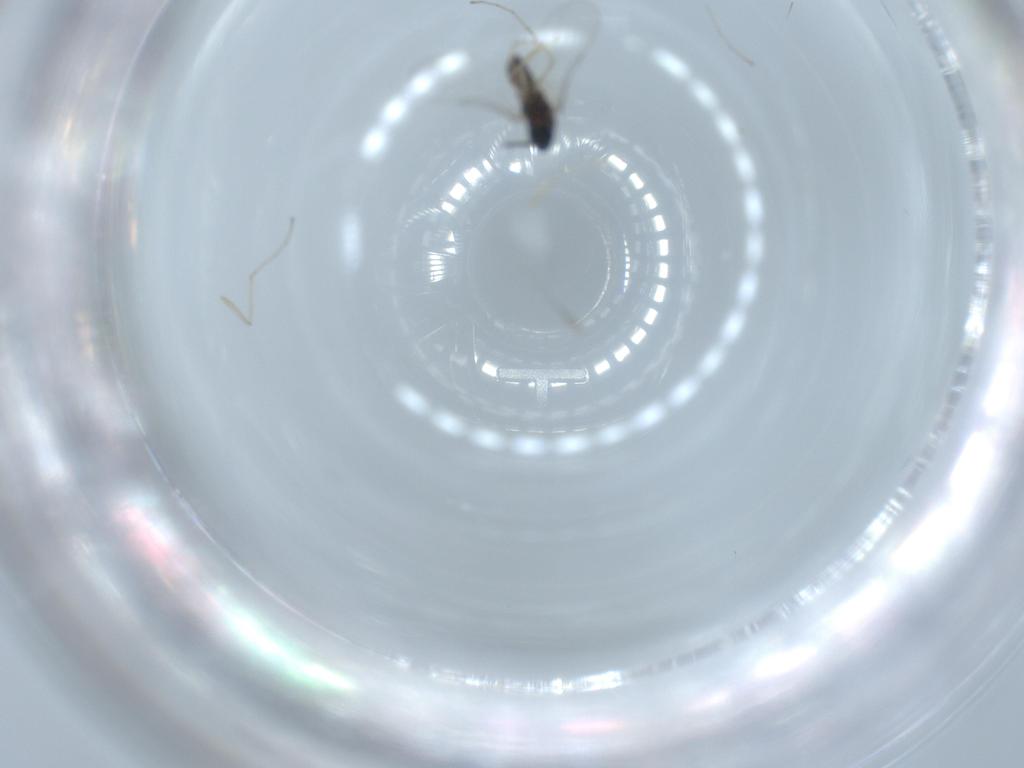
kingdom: Animalia
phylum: Arthropoda
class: Insecta
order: Diptera
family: Cecidomyiidae
